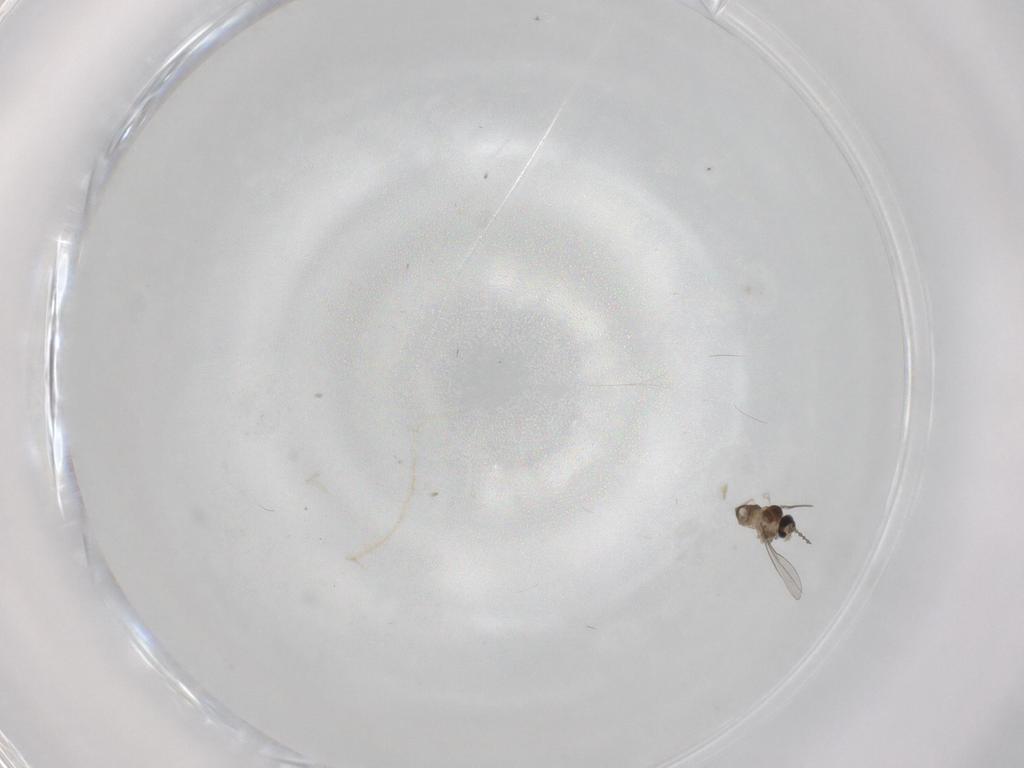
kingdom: Animalia
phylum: Arthropoda
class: Insecta
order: Diptera
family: Cecidomyiidae
